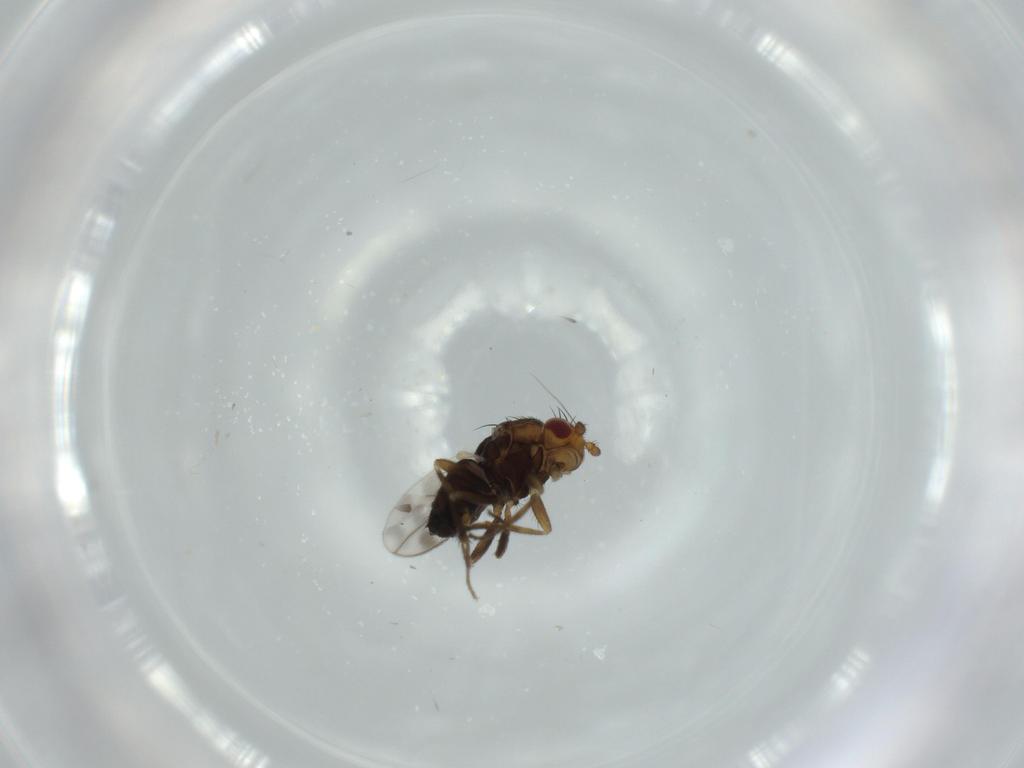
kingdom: Animalia
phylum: Arthropoda
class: Insecta
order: Diptera
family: Sphaeroceridae
